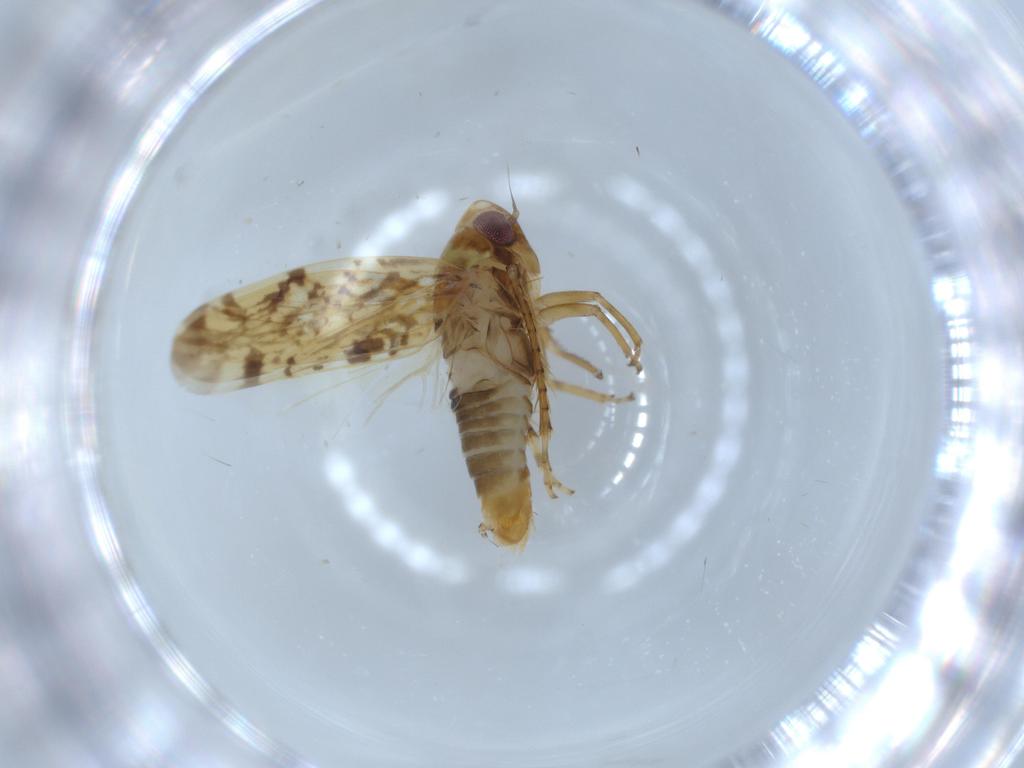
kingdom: Animalia
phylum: Arthropoda
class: Insecta
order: Hemiptera
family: Cicadellidae
